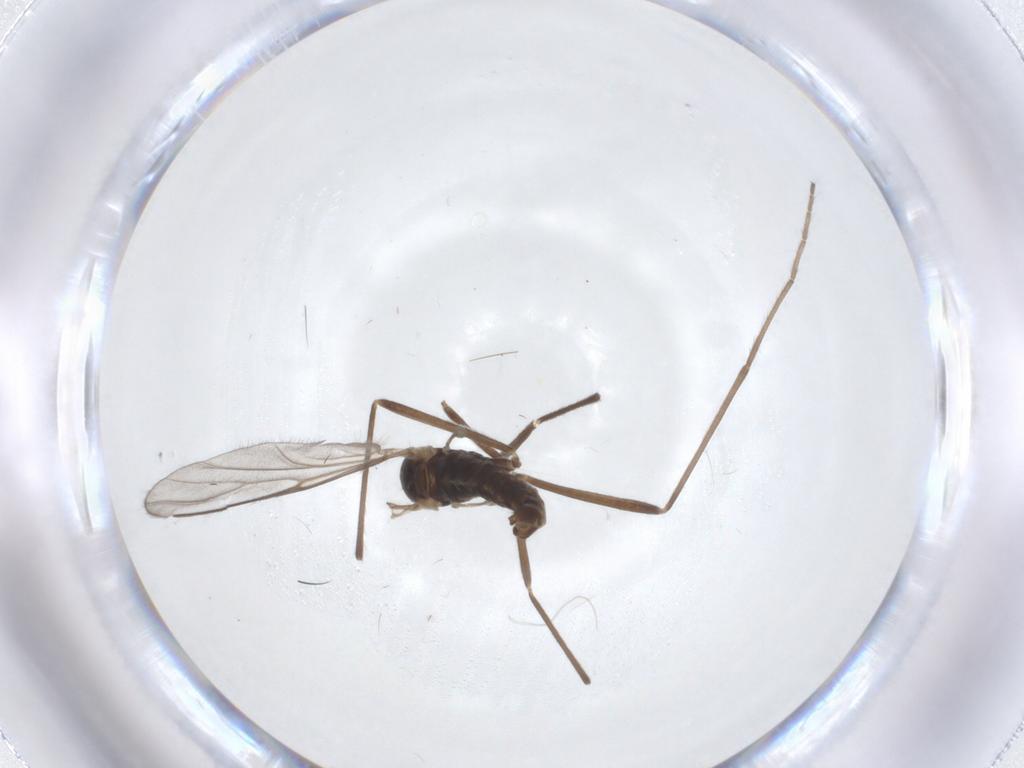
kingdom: Animalia
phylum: Arthropoda
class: Insecta
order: Diptera
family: Cecidomyiidae
